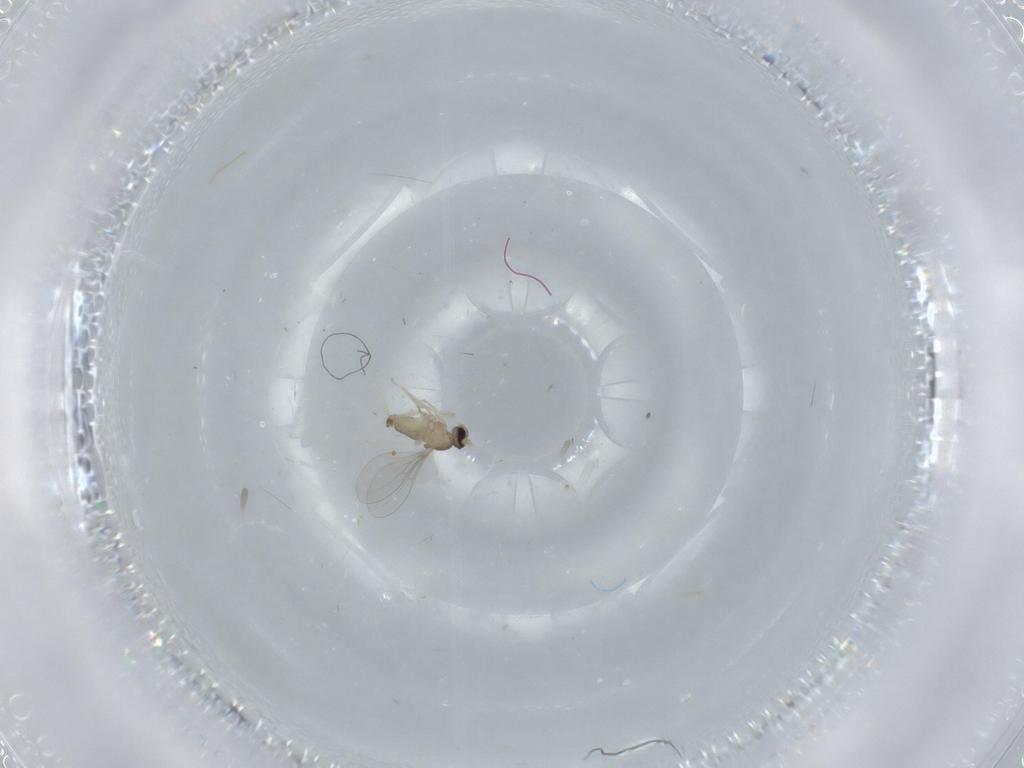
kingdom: Animalia
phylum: Arthropoda
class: Insecta
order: Diptera
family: Cecidomyiidae
